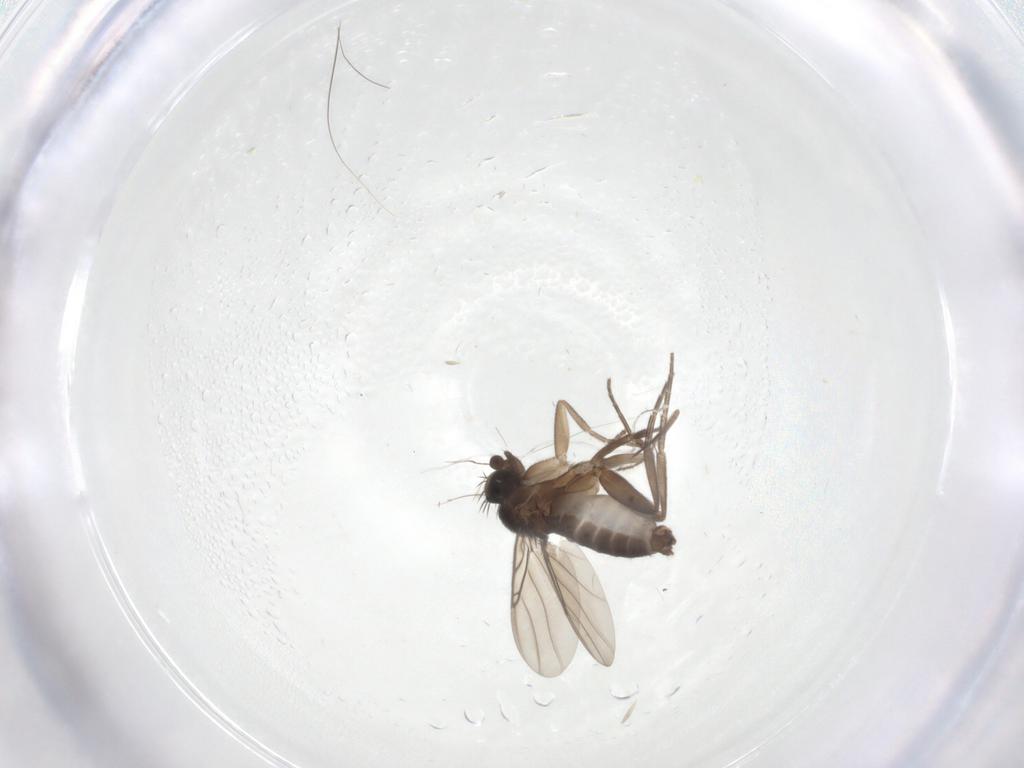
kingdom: Animalia
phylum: Arthropoda
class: Insecta
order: Diptera
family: Phoridae
